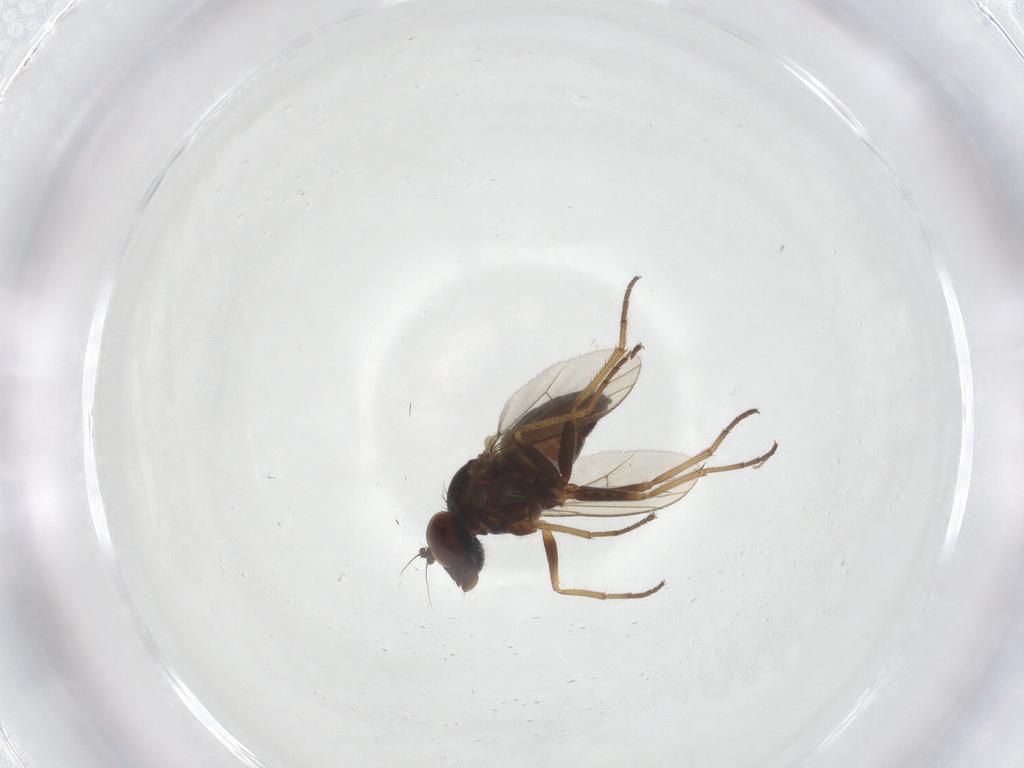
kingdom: Animalia
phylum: Arthropoda
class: Insecta
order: Diptera
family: Dolichopodidae
